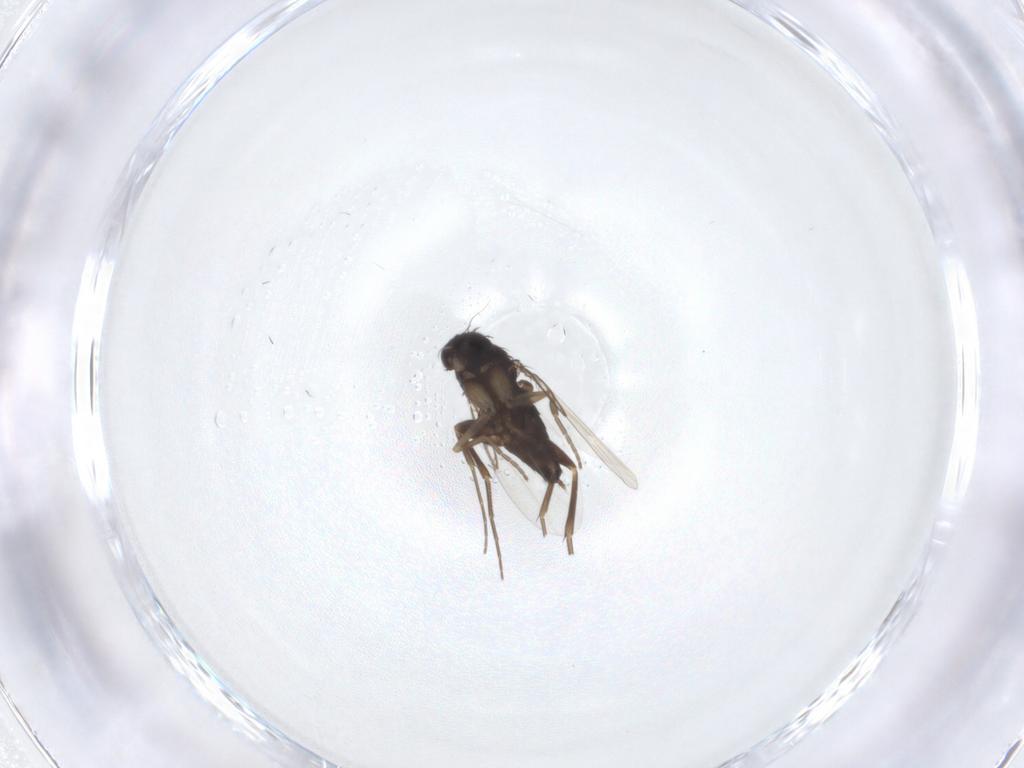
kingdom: Animalia
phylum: Arthropoda
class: Insecta
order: Diptera
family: Phoridae
